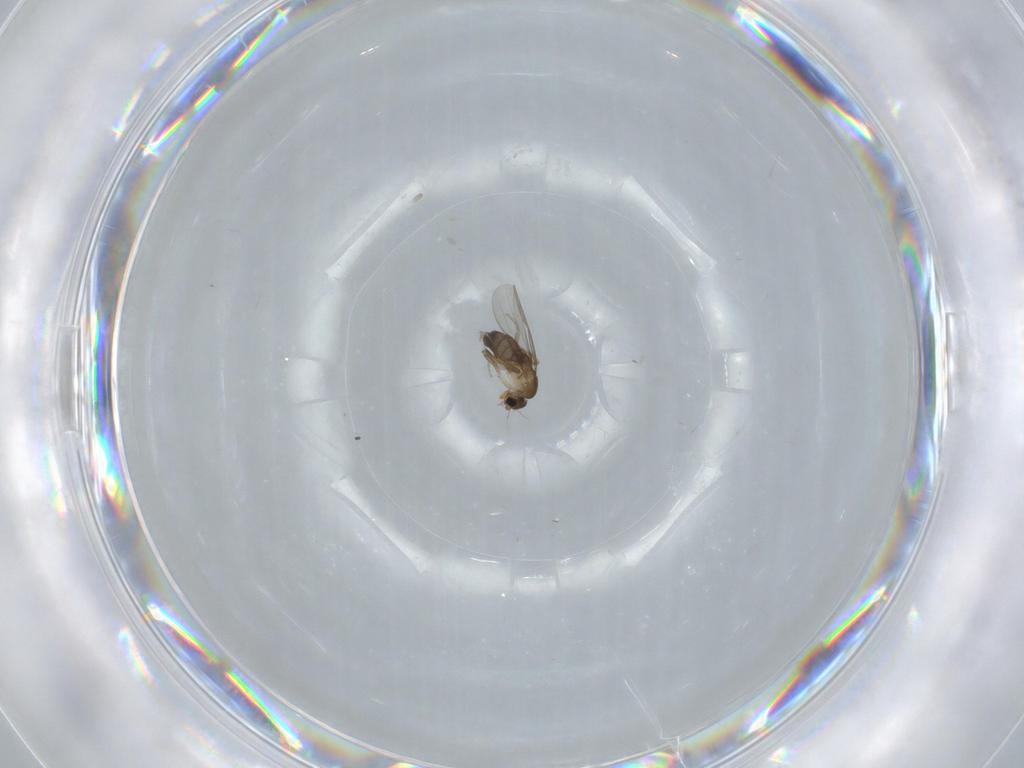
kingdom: Animalia
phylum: Arthropoda
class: Insecta
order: Diptera
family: Phoridae
